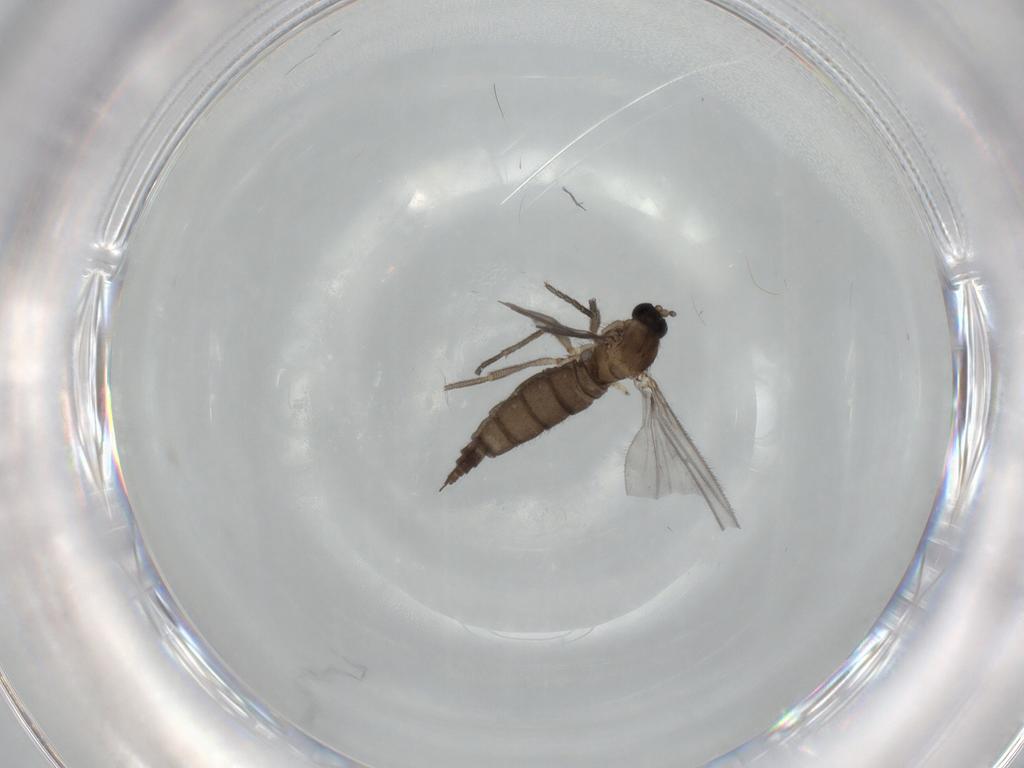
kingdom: Animalia
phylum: Arthropoda
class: Insecta
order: Diptera
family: Sciaridae
